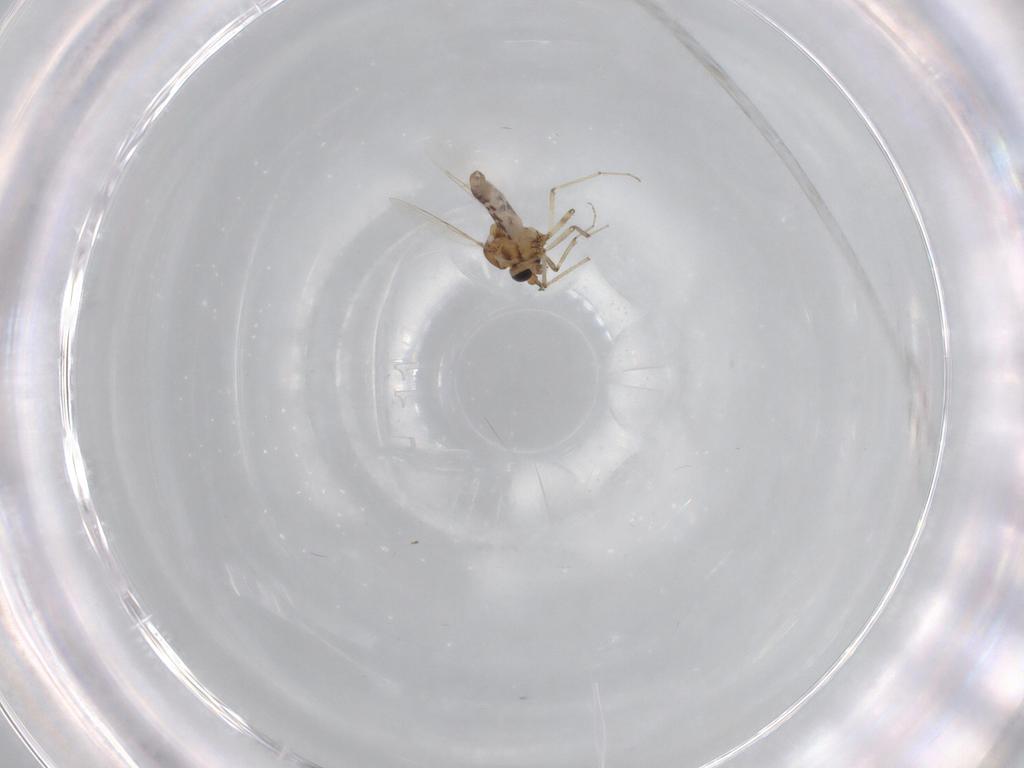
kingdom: Animalia
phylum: Arthropoda
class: Insecta
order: Diptera
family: Ceratopogonidae
